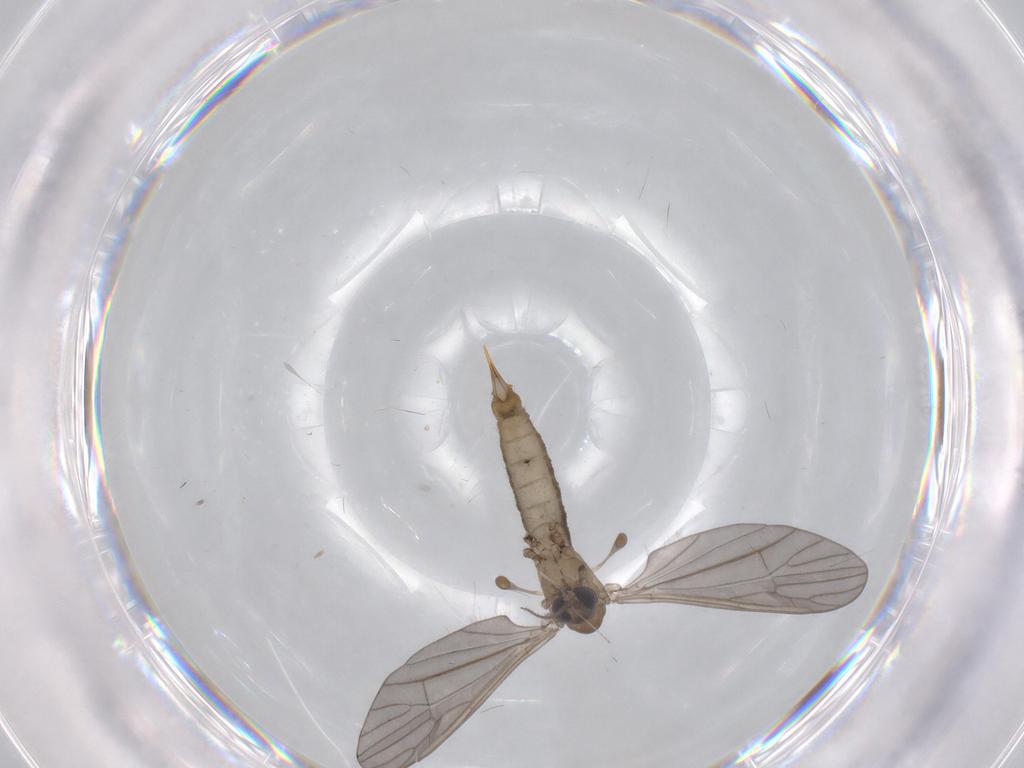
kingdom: Animalia
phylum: Arthropoda
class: Insecta
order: Diptera
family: Limoniidae
